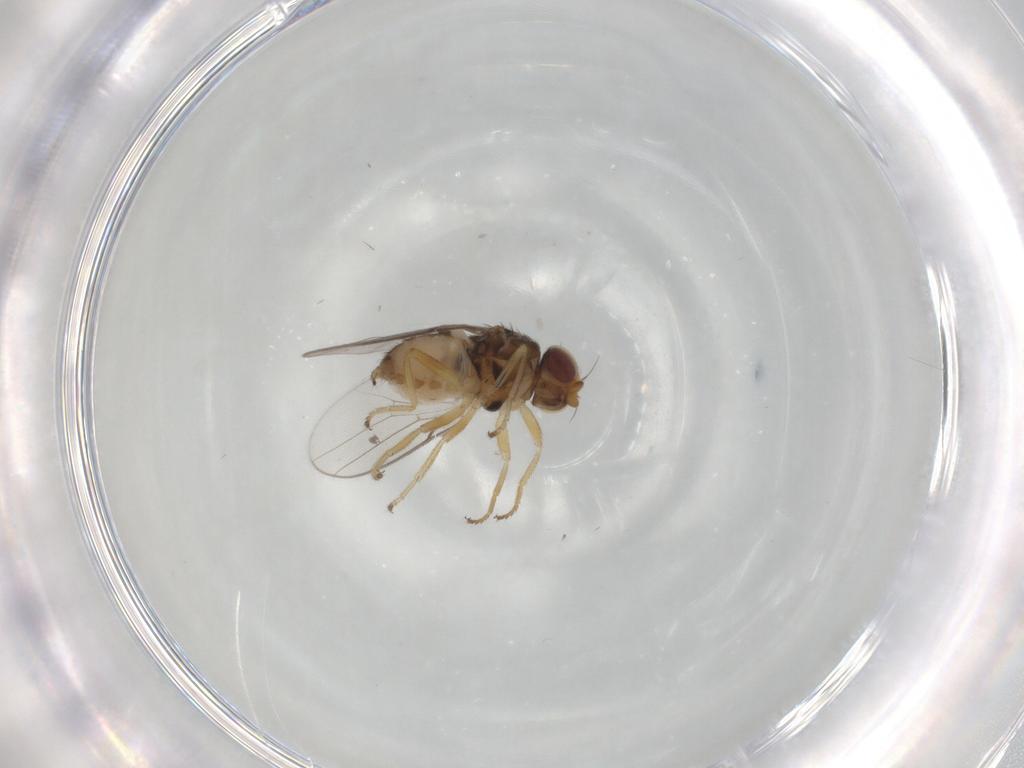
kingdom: Animalia
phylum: Arthropoda
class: Insecta
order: Diptera
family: Chloropidae
